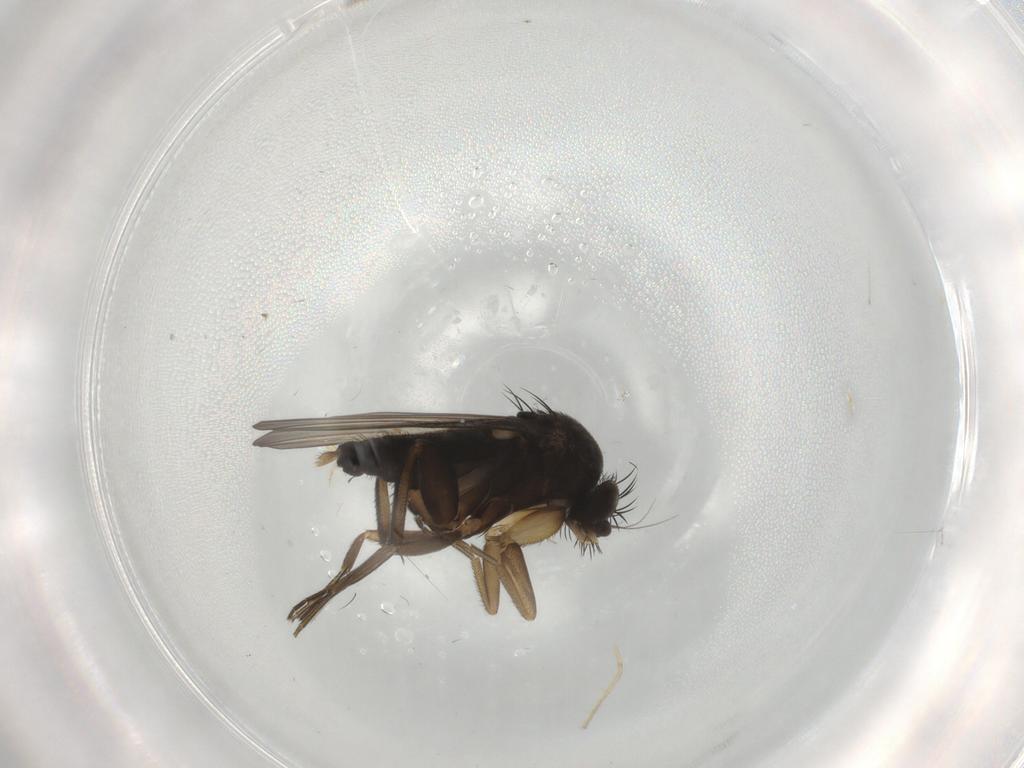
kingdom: Animalia
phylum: Arthropoda
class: Insecta
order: Diptera
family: Phoridae
